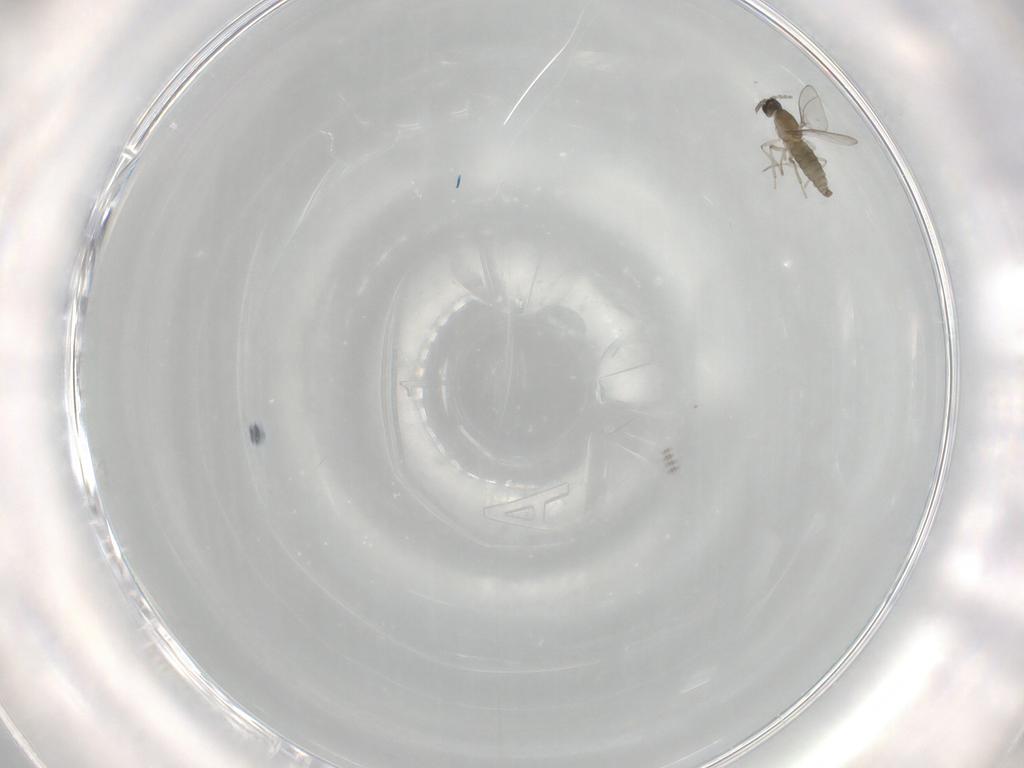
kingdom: Animalia
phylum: Arthropoda
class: Insecta
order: Diptera
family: Cecidomyiidae
